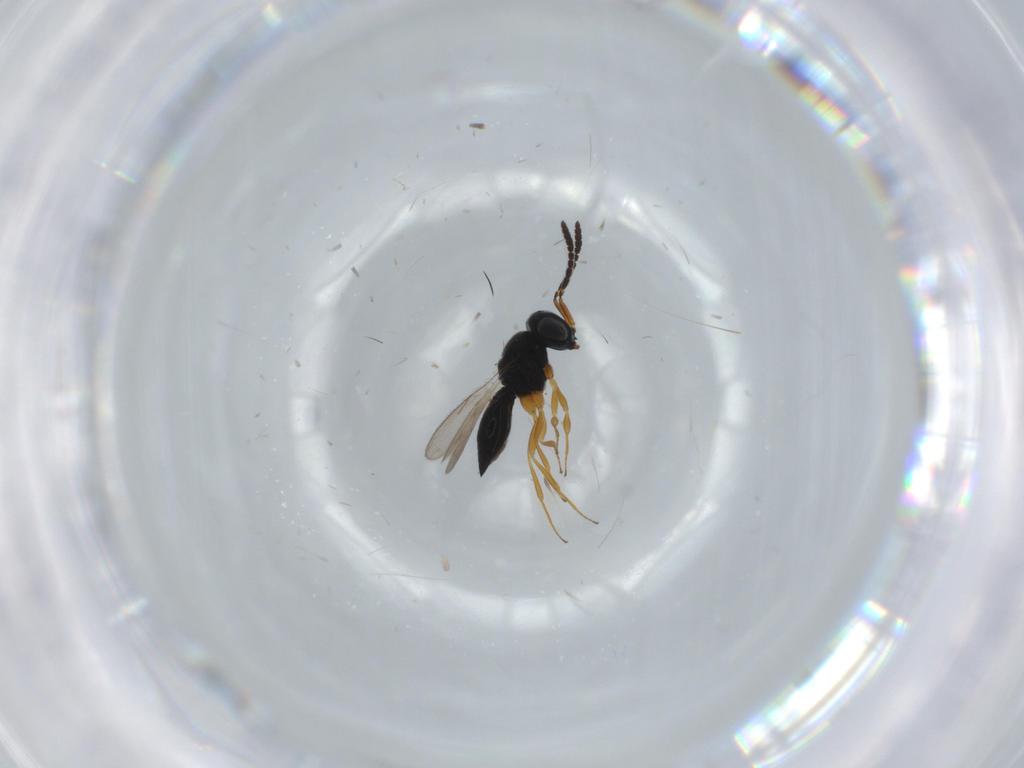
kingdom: Animalia
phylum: Arthropoda
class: Insecta
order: Hymenoptera
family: Scelionidae
